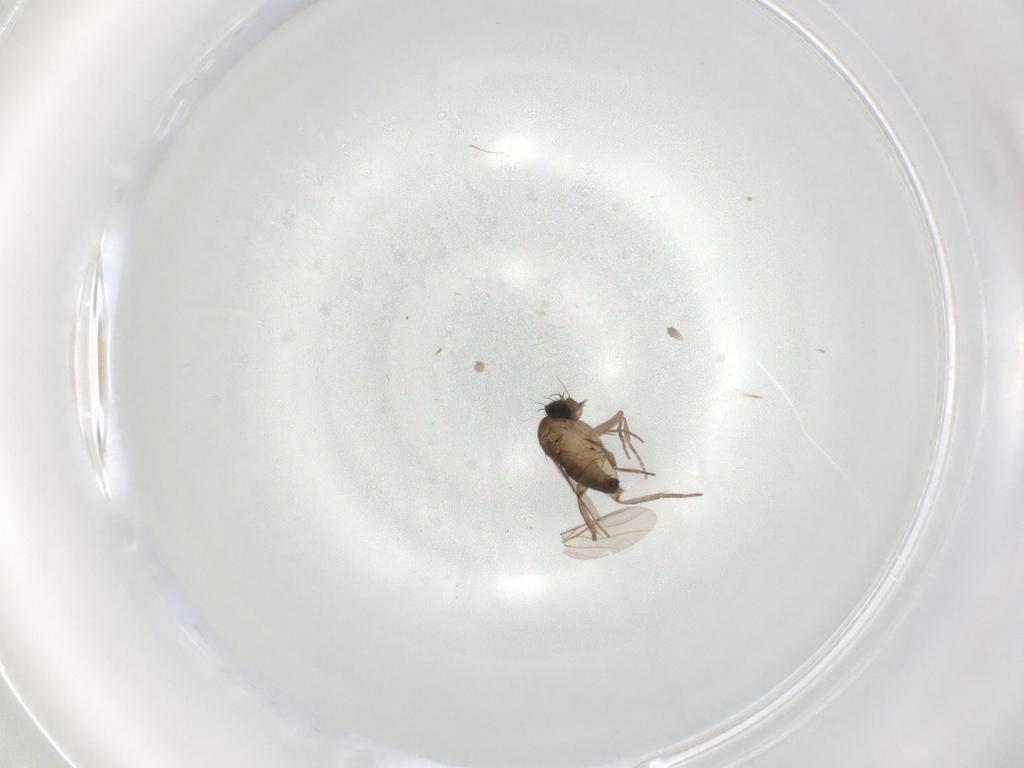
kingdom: Animalia
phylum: Arthropoda
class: Insecta
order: Diptera
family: Phoridae
